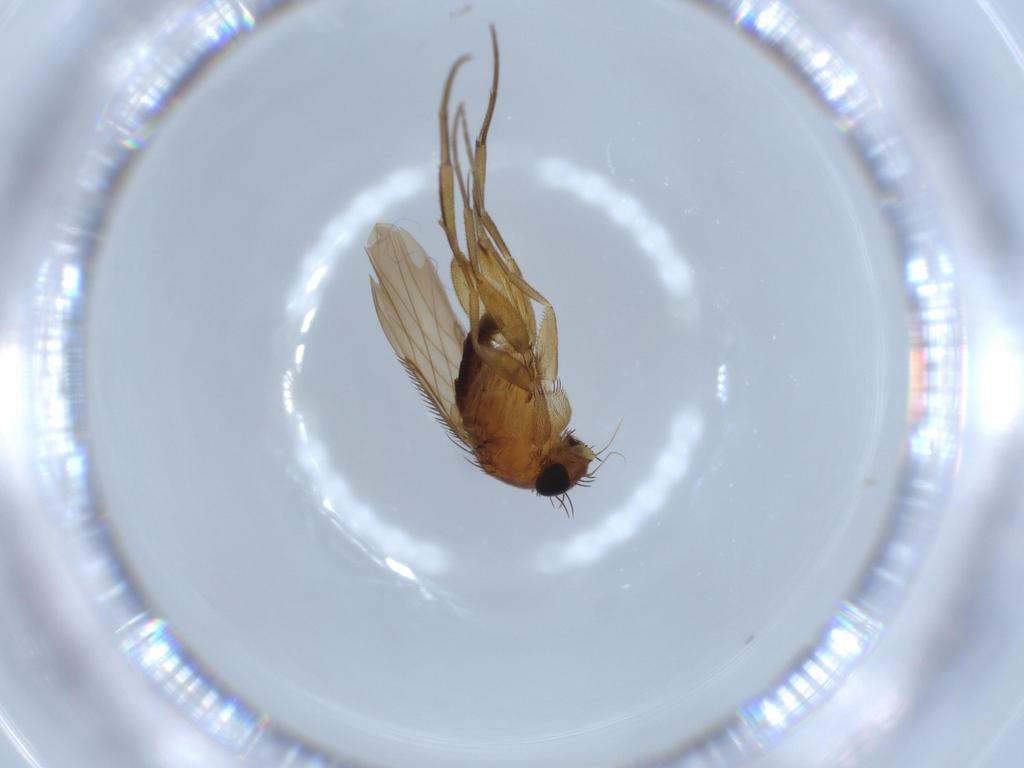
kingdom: Animalia
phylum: Arthropoda
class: Insecta
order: Diptera
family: Phoridae
